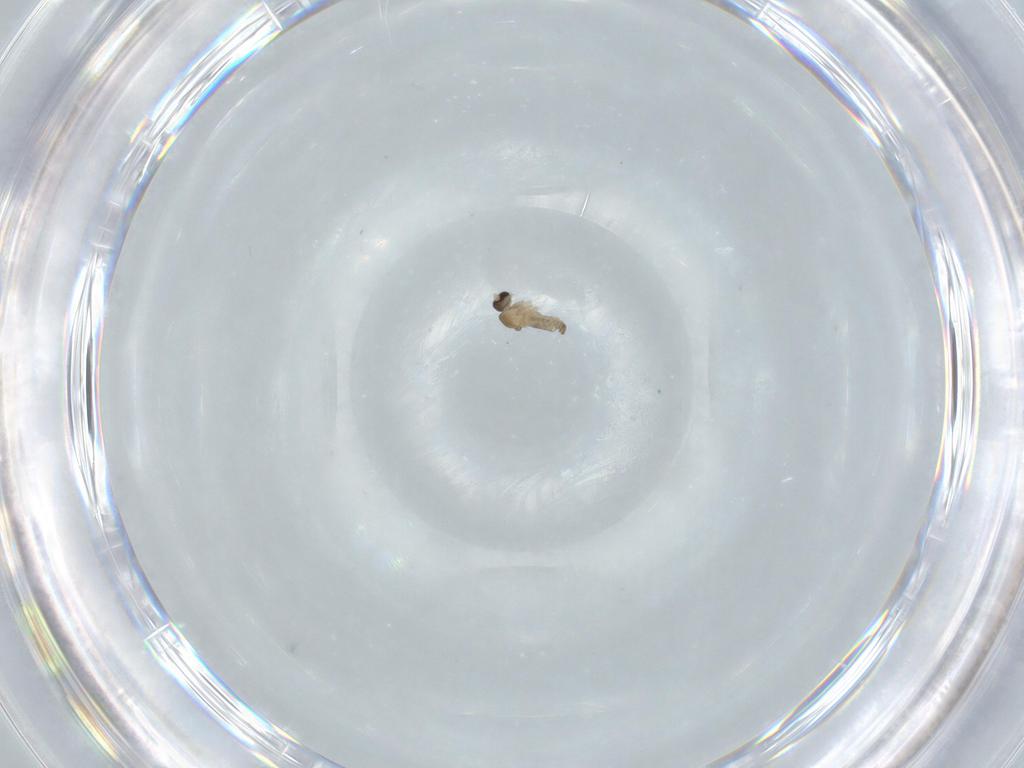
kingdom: Animalia
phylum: Arthropoda
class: Insecta
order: Diptera
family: Cecidomyiidae
